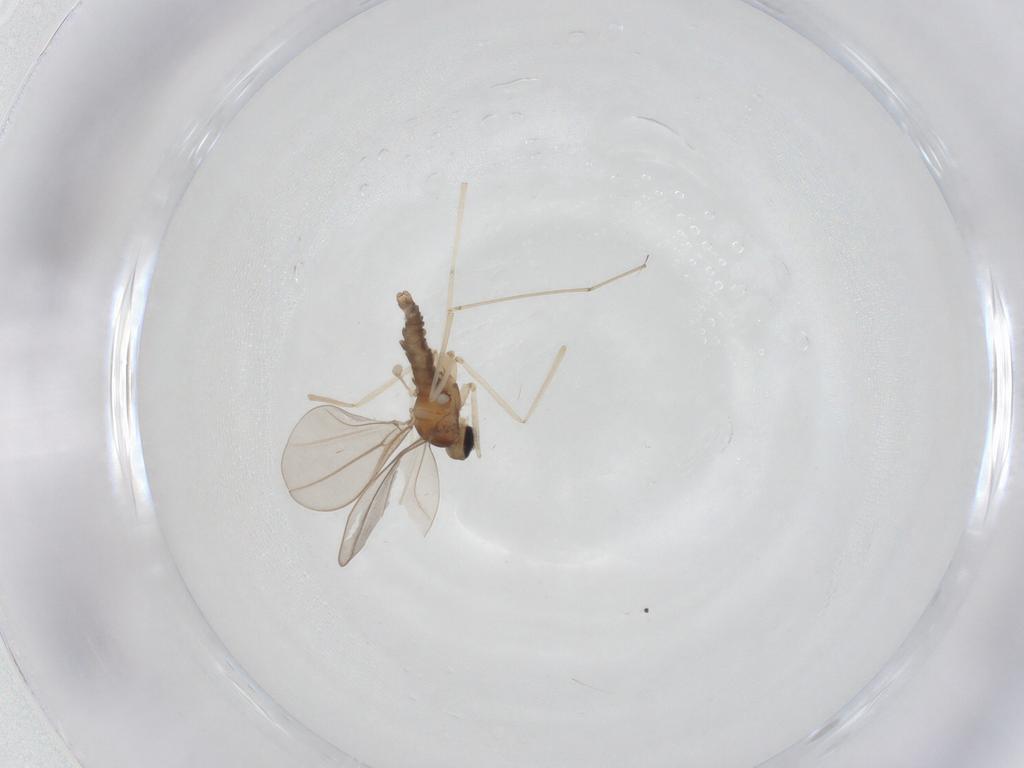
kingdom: Animalia
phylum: Arthropoda
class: Insecta
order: Diptera
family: Cecidomyiidae
